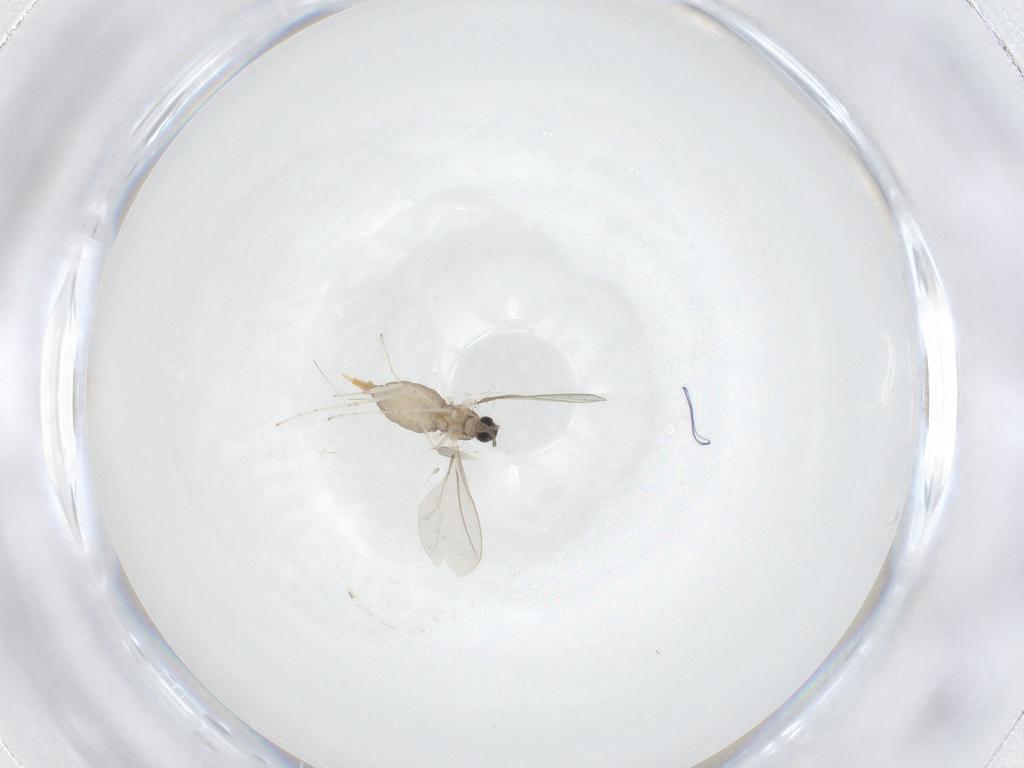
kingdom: Animalia
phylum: Arthropoda
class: Insecta
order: Diptera
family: Cecidomyiidae
